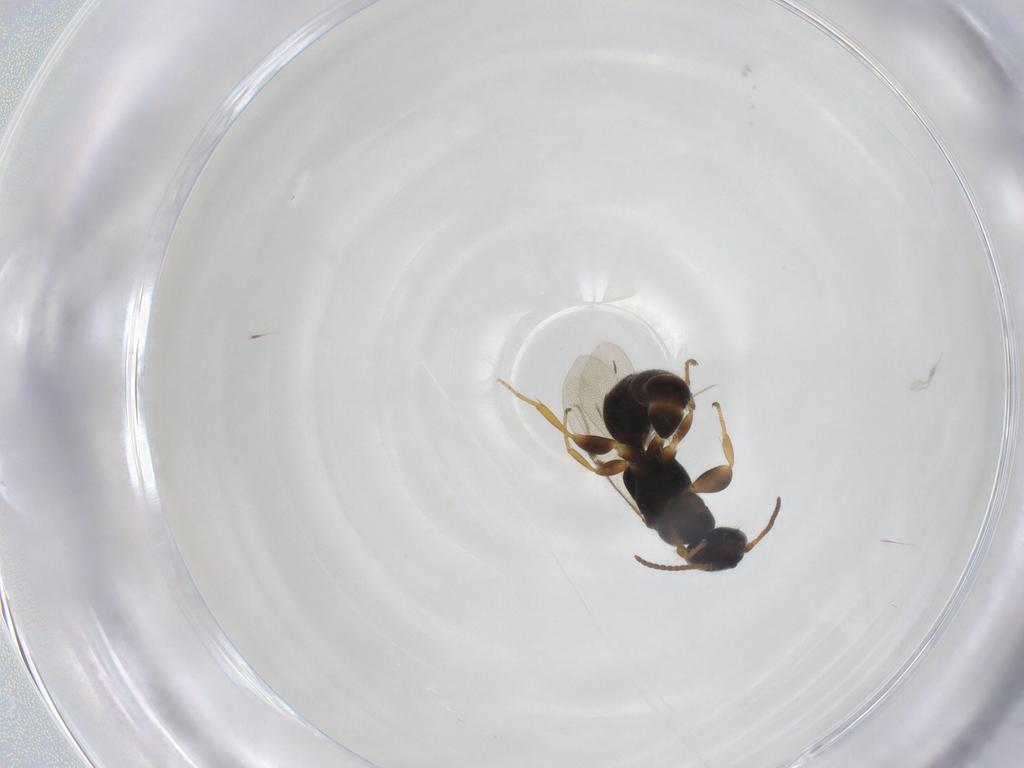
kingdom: Animalia
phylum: Arthropoda
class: Insecta
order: Hymenoptera
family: Bethylidae
